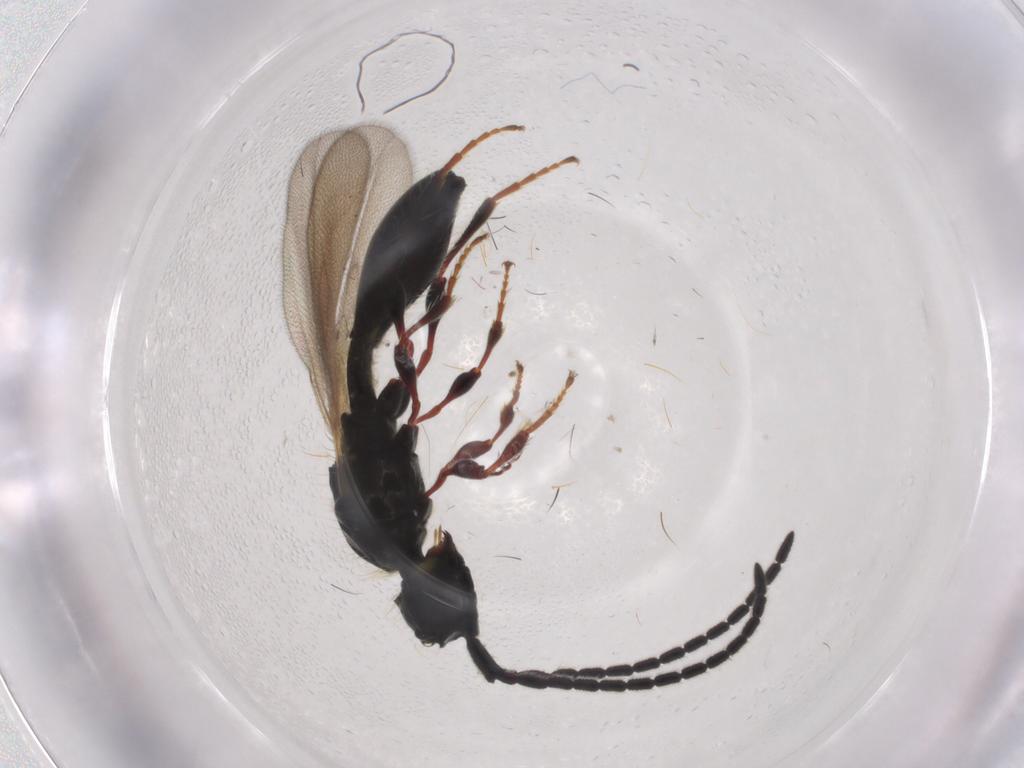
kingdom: Animalia
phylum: Arthropoda
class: Insecta
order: Hymenoptera
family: Diapriidae
